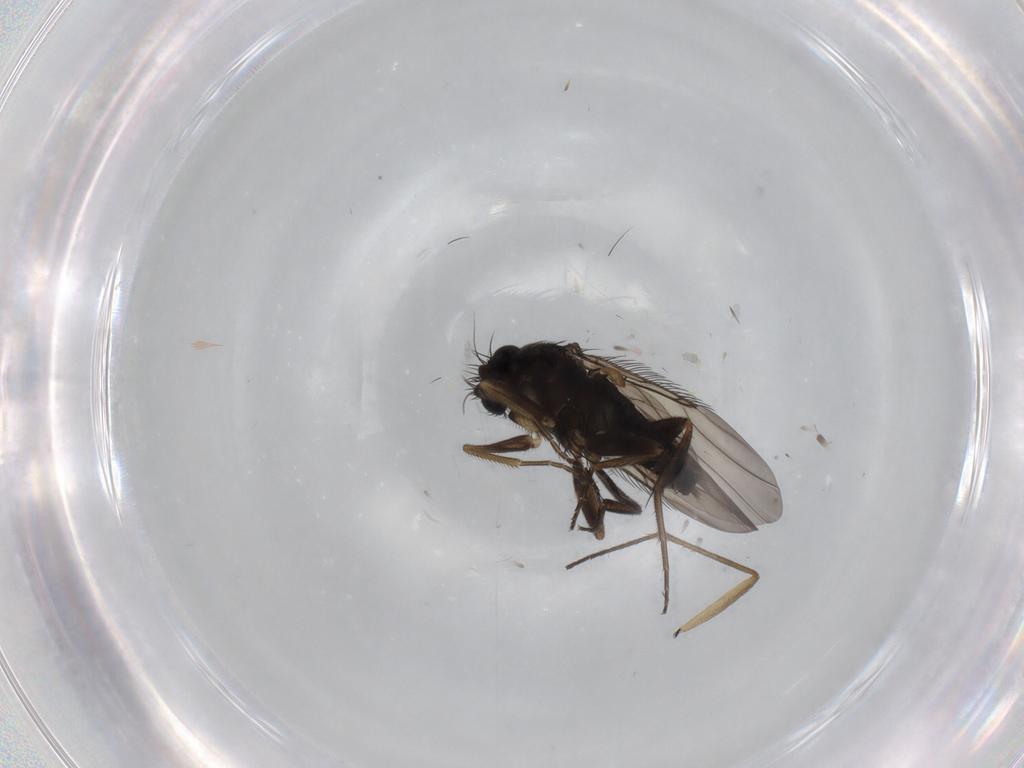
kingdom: Animalia
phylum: Arthropoda
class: Insecta
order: Diptera
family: Phoridae
